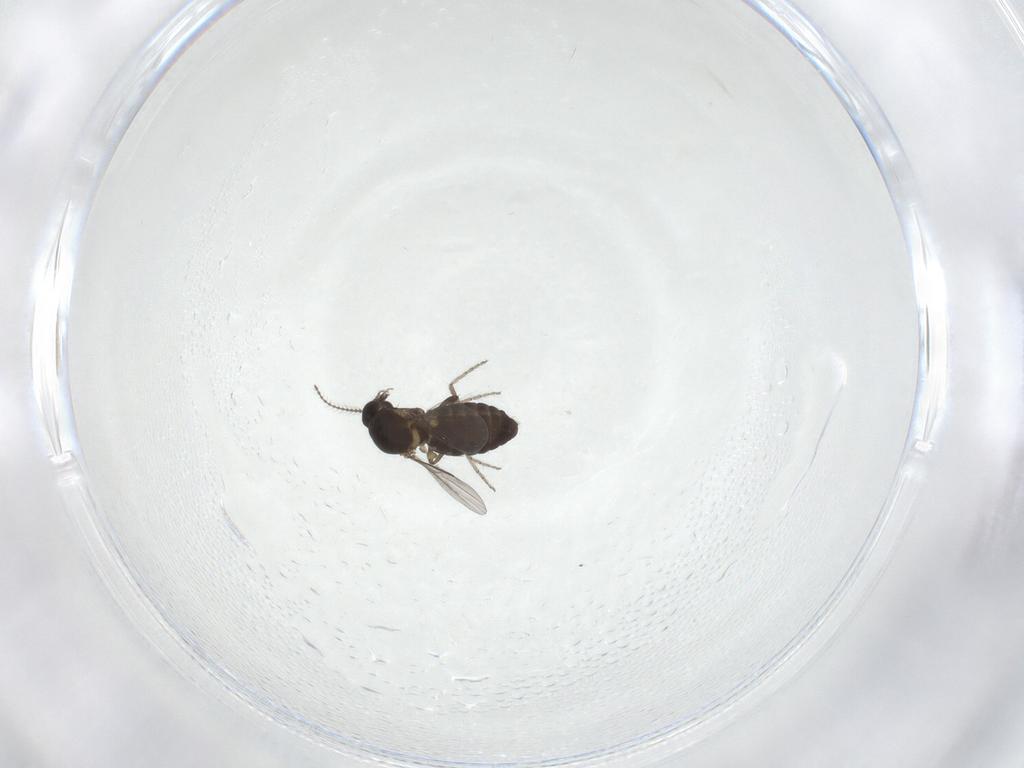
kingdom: Animalia
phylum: Arthropoda
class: Insecta
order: Diptera
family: Ceratopogonidae
